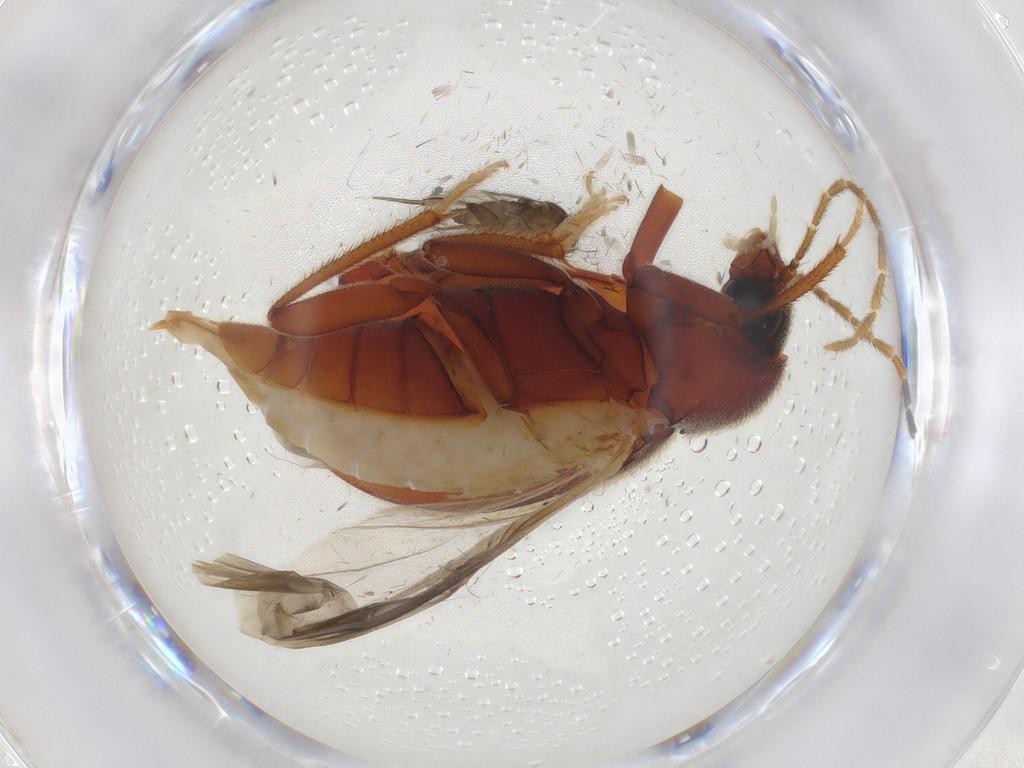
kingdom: Animalia
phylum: Arthropoda
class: Insecta
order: Coleoptera
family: Ptilodactylidae
